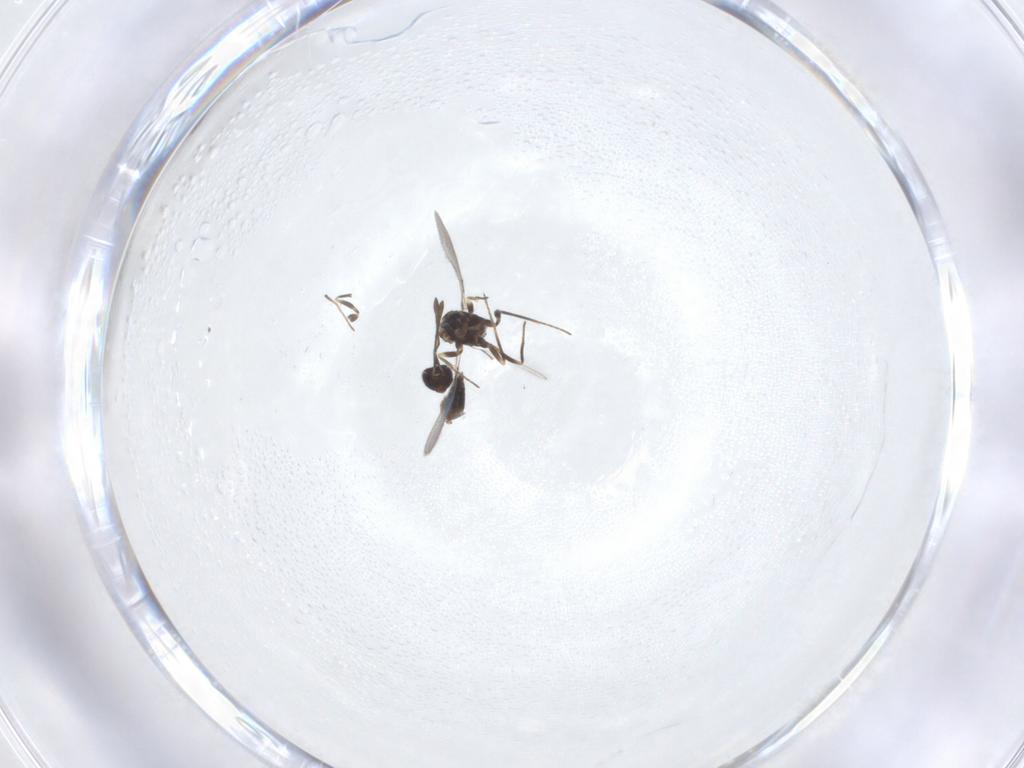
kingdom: Animalia
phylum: Arthropoda
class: Insecta
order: Hymenoptera
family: Mymaridae
